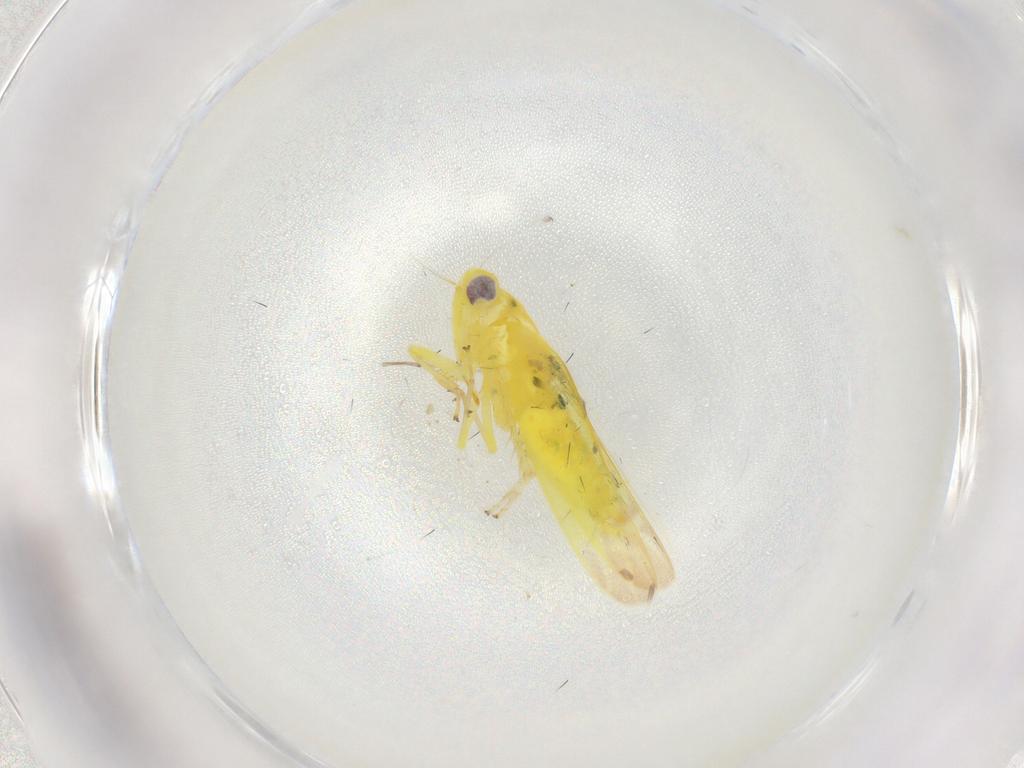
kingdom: Animalia
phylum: Arthropoda
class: Insecta
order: Hemiptera
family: Cicadellidae
